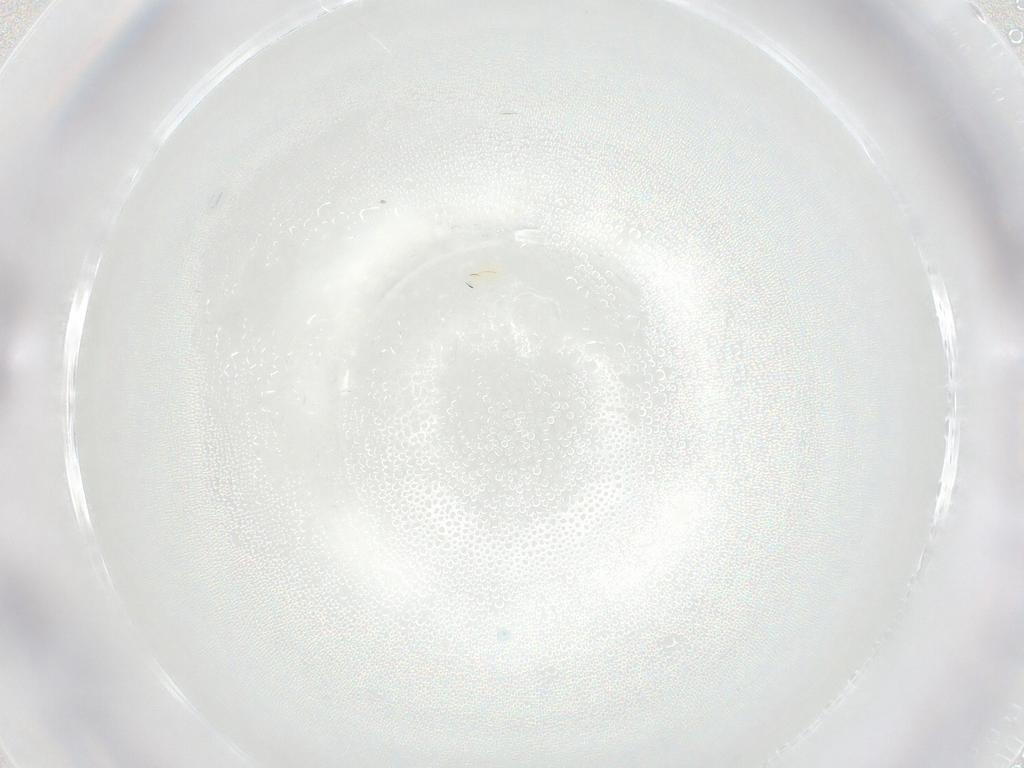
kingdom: Animalia
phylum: Arthropoda
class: Arachnida
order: Trombidiformes
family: Tetranychidae
